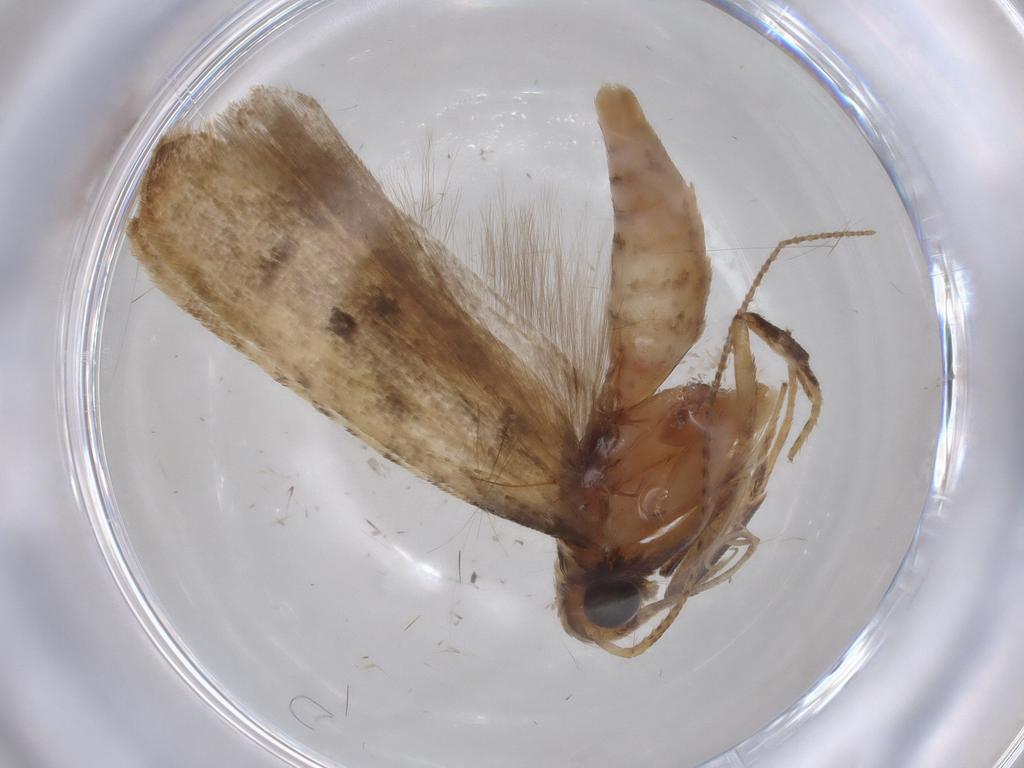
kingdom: Animalia
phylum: Arthropoda
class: Insecta
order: Lepidoptera
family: Gelechiidae
